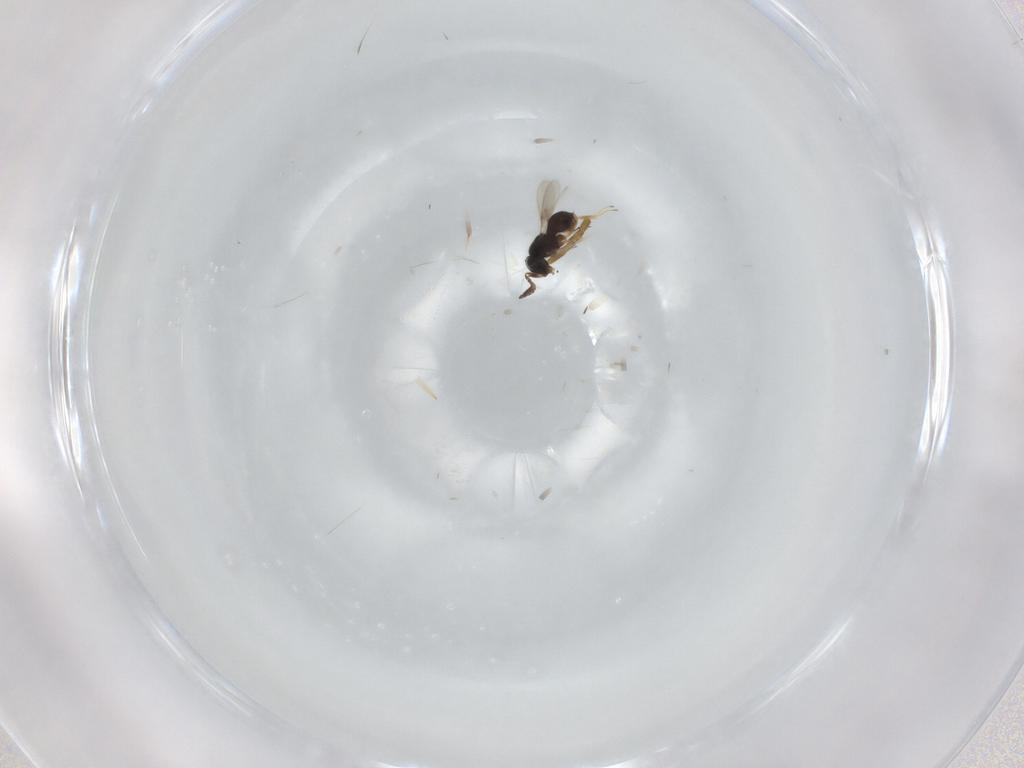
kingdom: Animalia
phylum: Arthropoda
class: Insecta
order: Hymenoptera
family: Scelionidae
